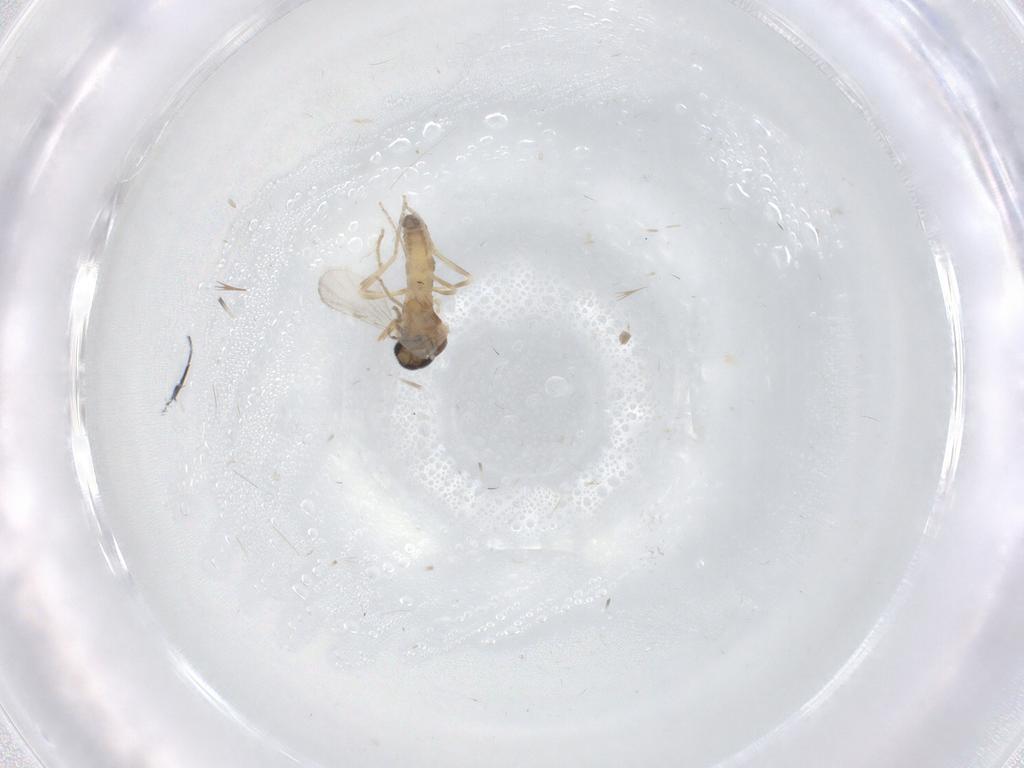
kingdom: Animalia
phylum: Arthropoda
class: Insecta
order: Diptera
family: Ceratopogonidae
